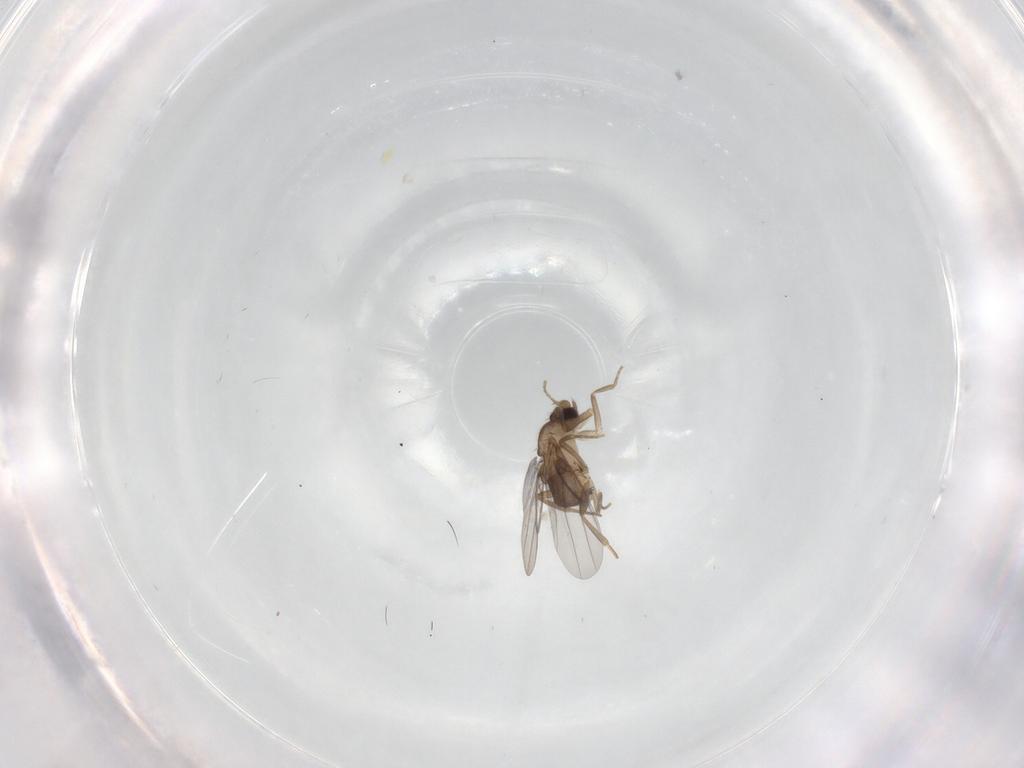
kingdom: Animalia
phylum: Arthropoda
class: Insecta
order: Diptera
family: Phoridae
